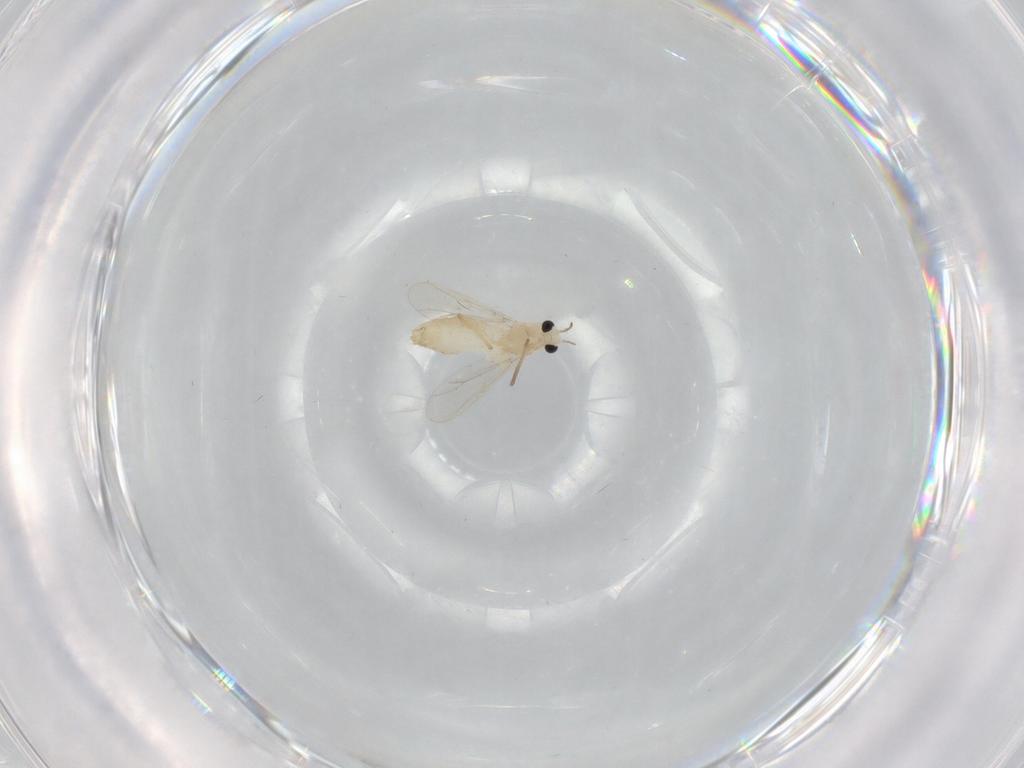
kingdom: Animalia
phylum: Arthropoda
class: Insecta
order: Diptera
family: Chironomidae
